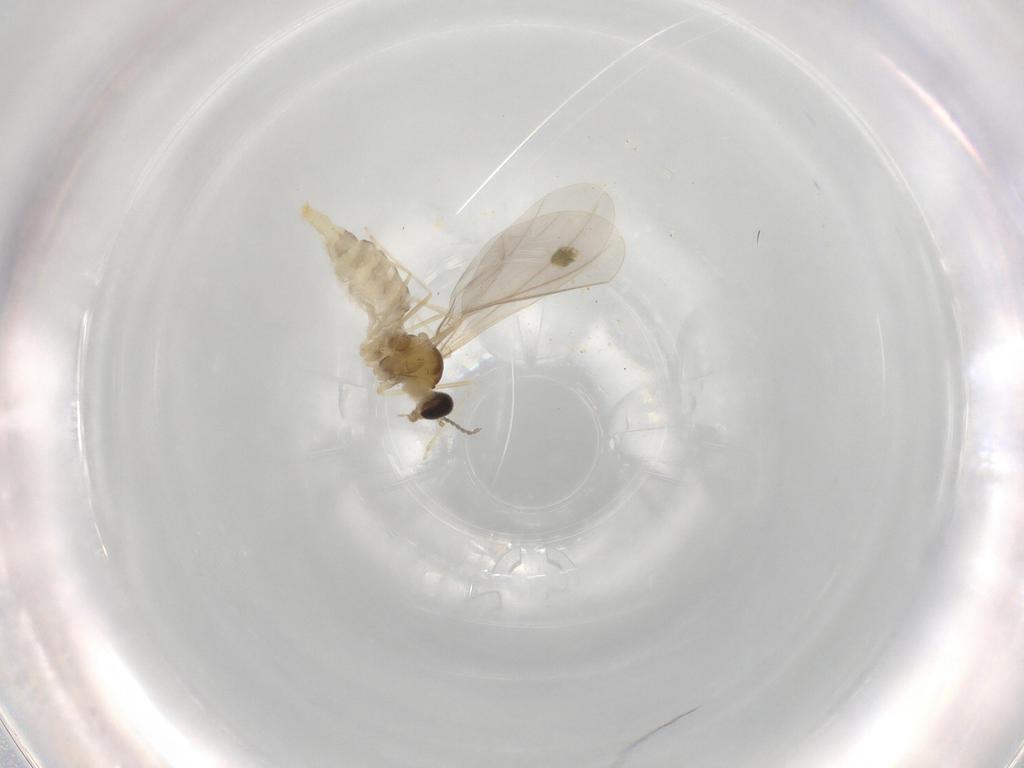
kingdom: Animalia
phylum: Arthropoda
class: Insecta
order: Diptera
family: Cecidomyiidae
